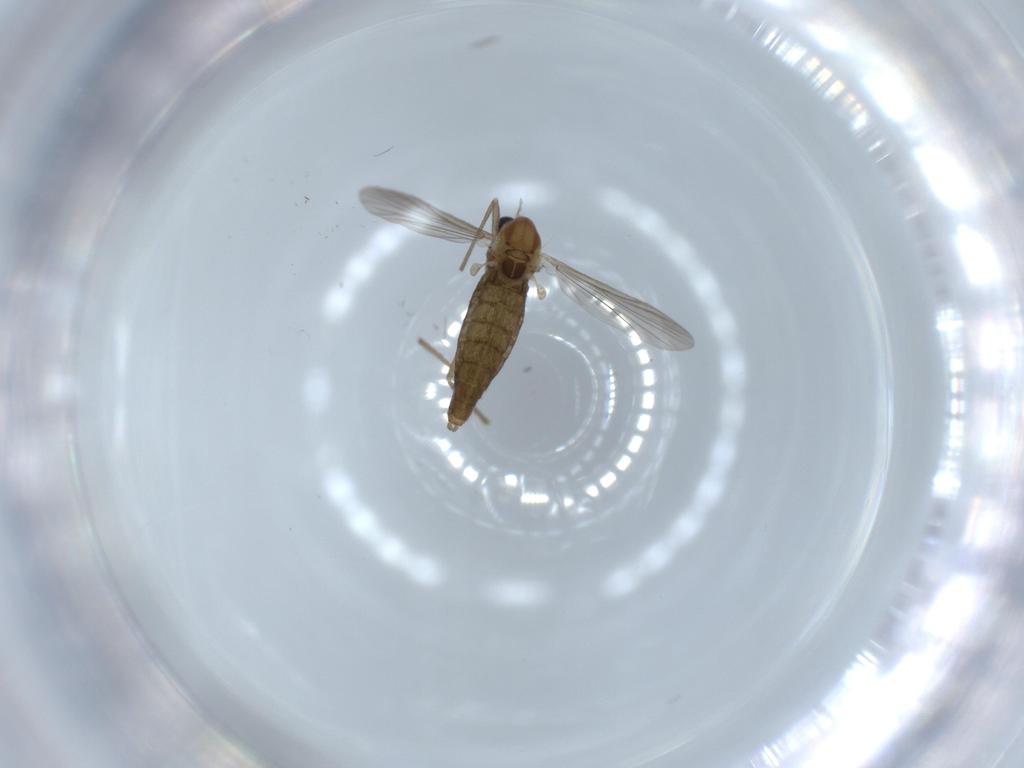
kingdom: Animalia
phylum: Arthropoda
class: Insecta
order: Diptera
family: Chironomidae
